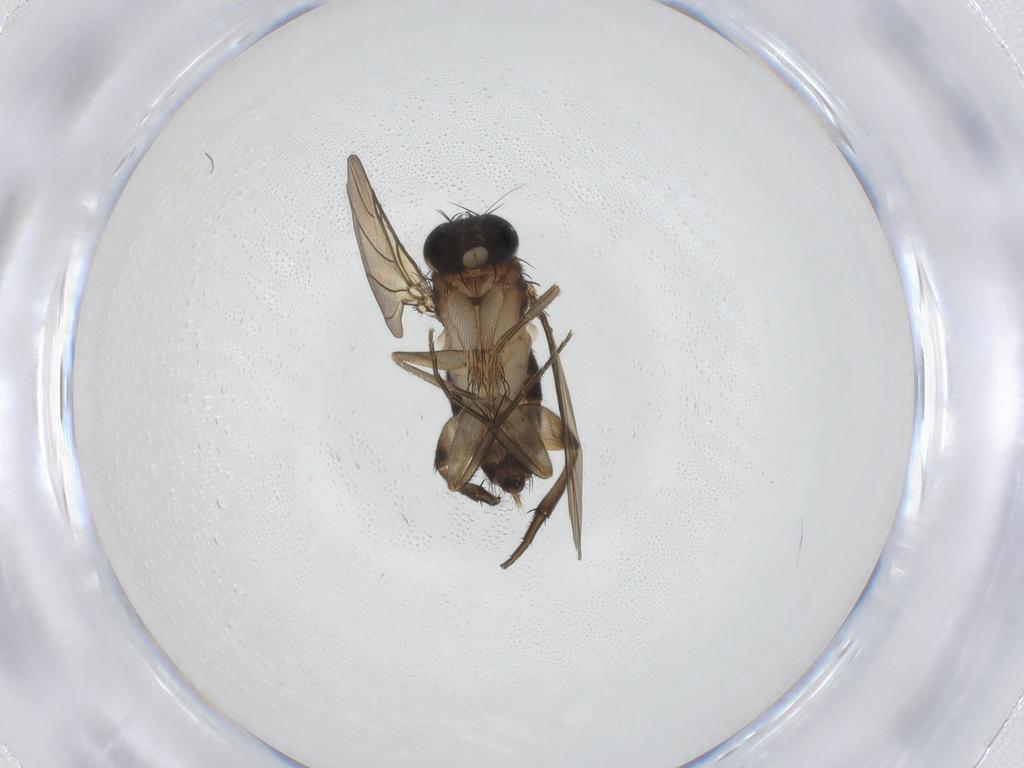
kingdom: Animalia
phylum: Arthropoda
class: Insecta
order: Diptera
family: Phoridae
